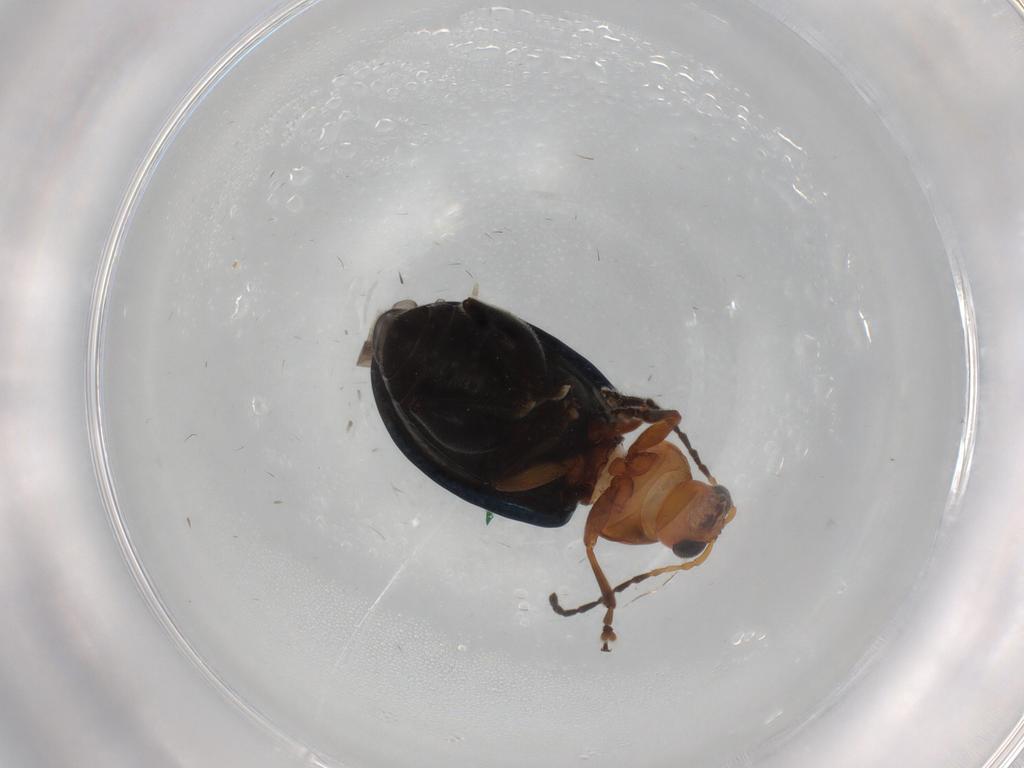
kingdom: Animalia
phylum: Arthropoda
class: Insecta
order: Coleoptera
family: Chrysomelidae
